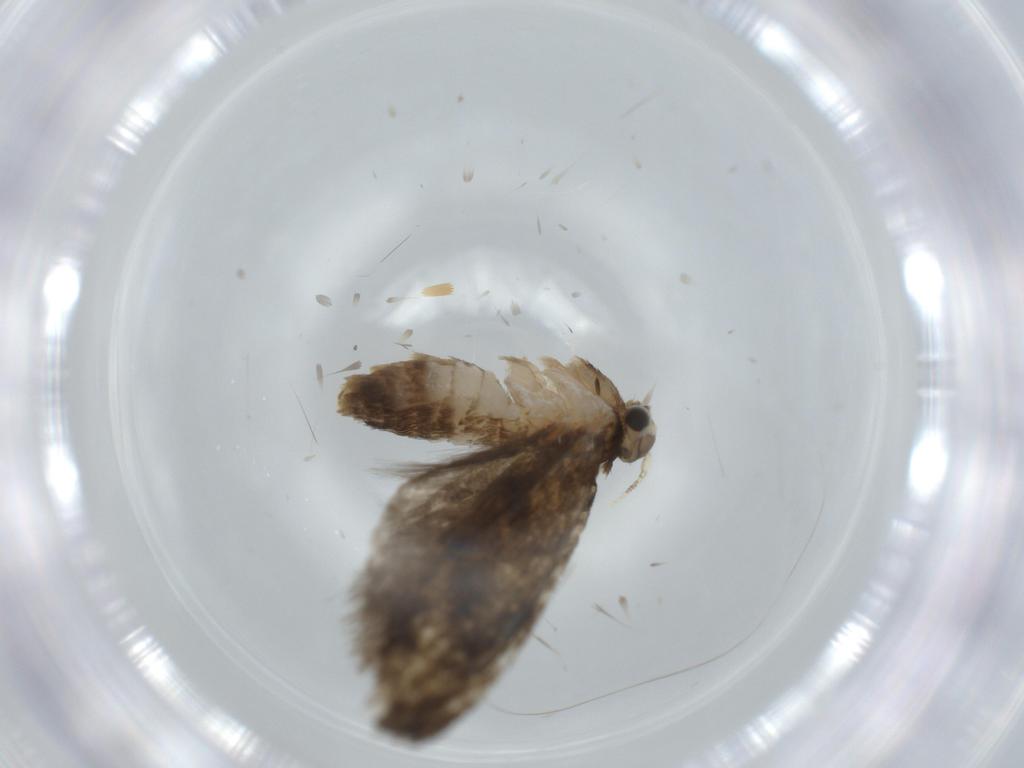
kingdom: Animalia
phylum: Arthropoda
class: Insecta
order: Lepidoptera
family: Tineidae
